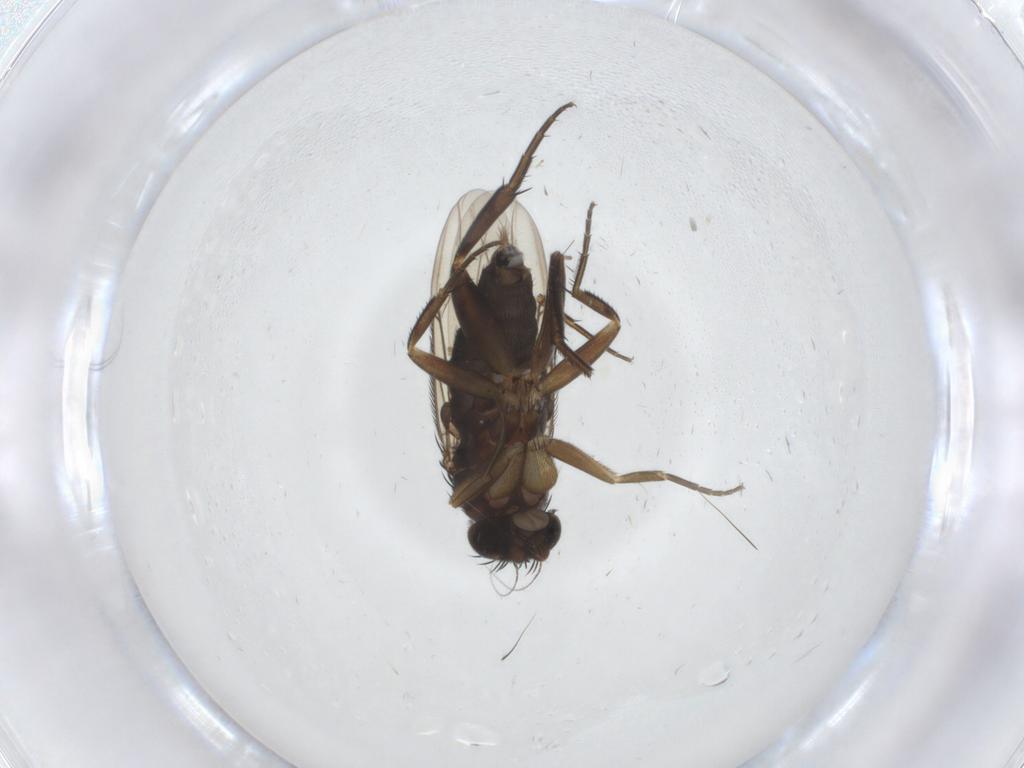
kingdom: Animalia
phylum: Arthropoda
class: Insecta
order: Diptera
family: Phoridae
